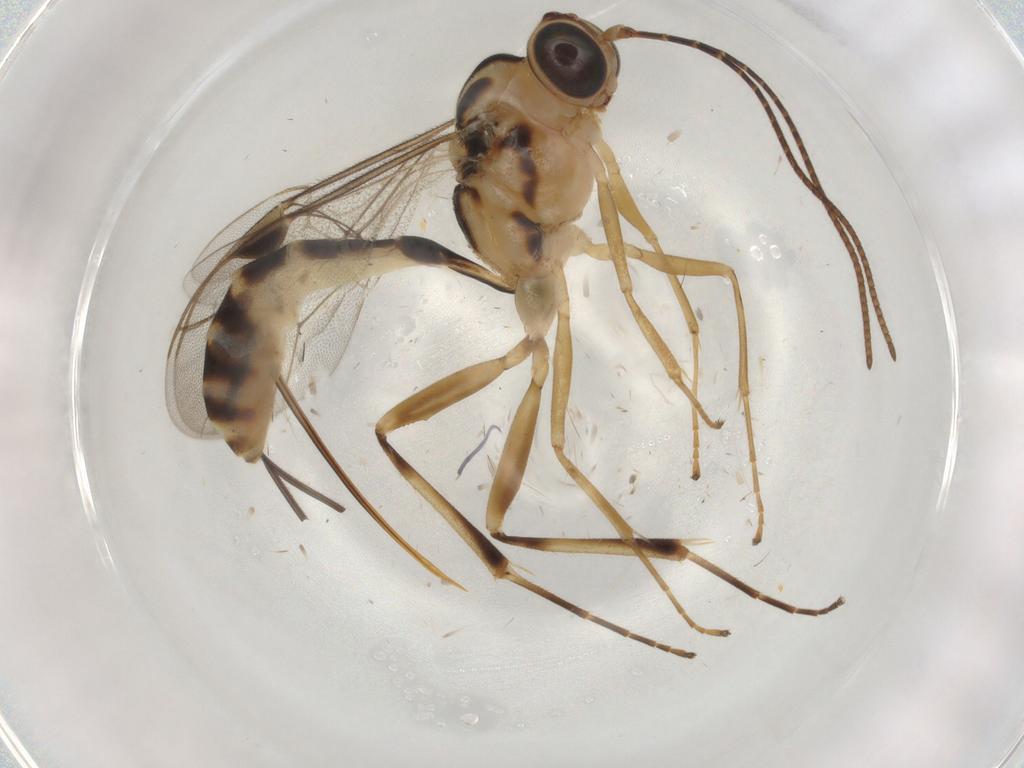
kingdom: Animalia
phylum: Arthropoda
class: Insecta
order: Hymenoptera
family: Ichneumonidae
